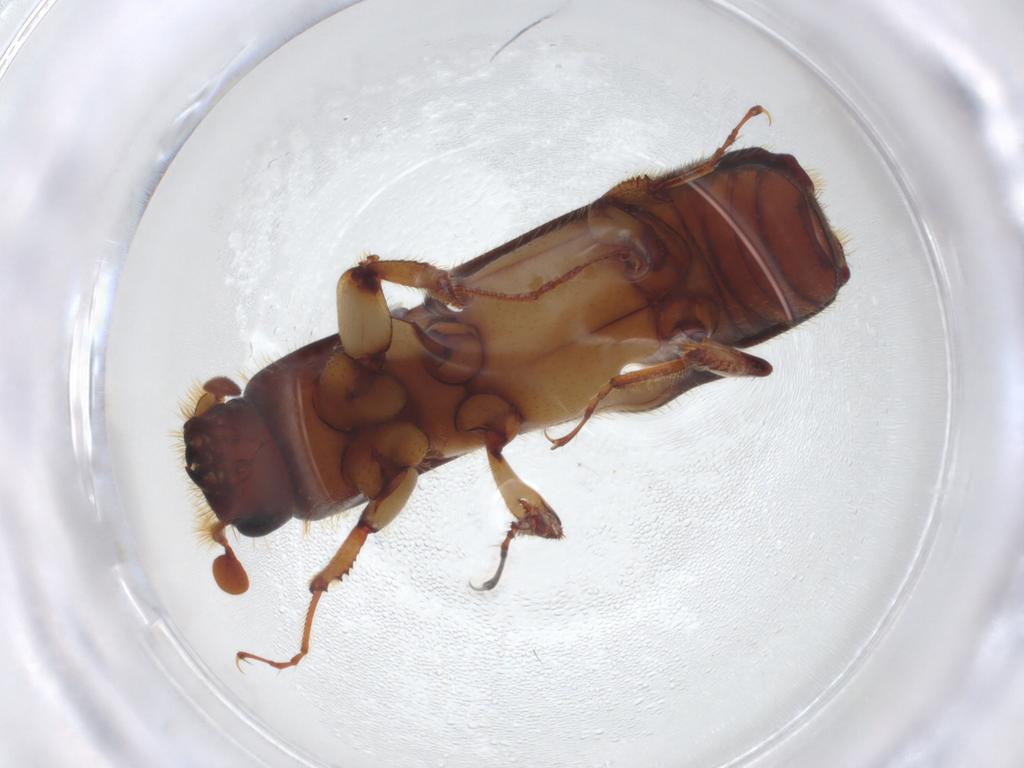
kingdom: Animalia
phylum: Arthropoda
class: Insecta
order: Coleoptera
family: Curculionidae
